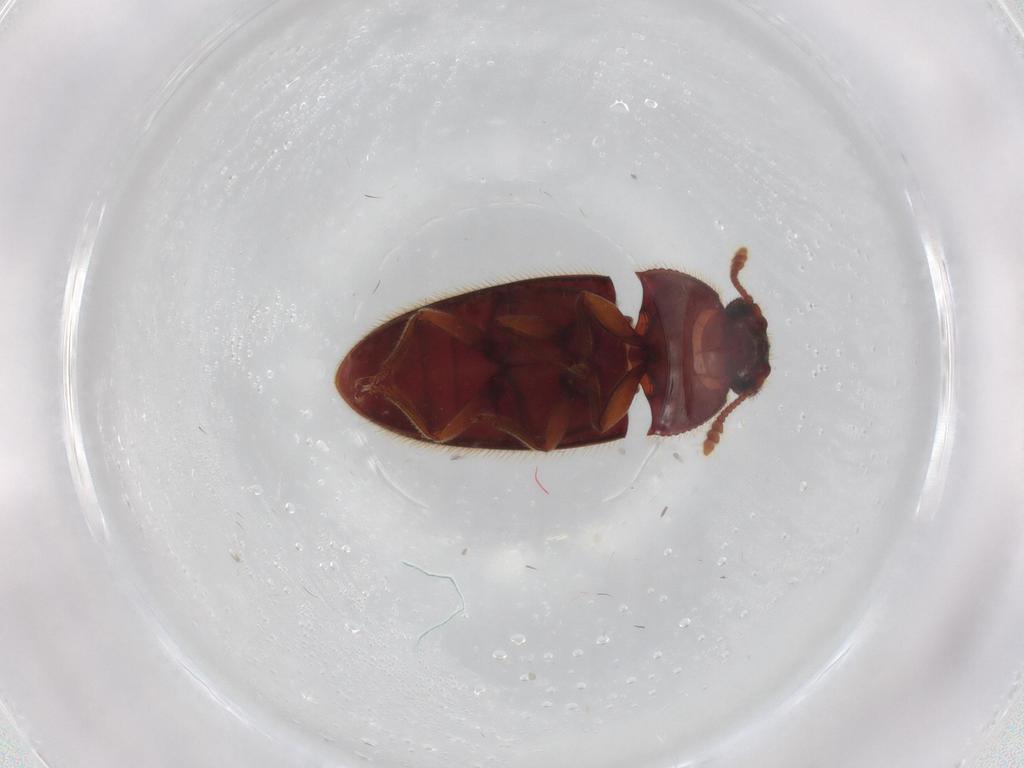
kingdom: Animalia
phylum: Arthropoda
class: Insecta
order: Coleoptera
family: Biphyllidae
